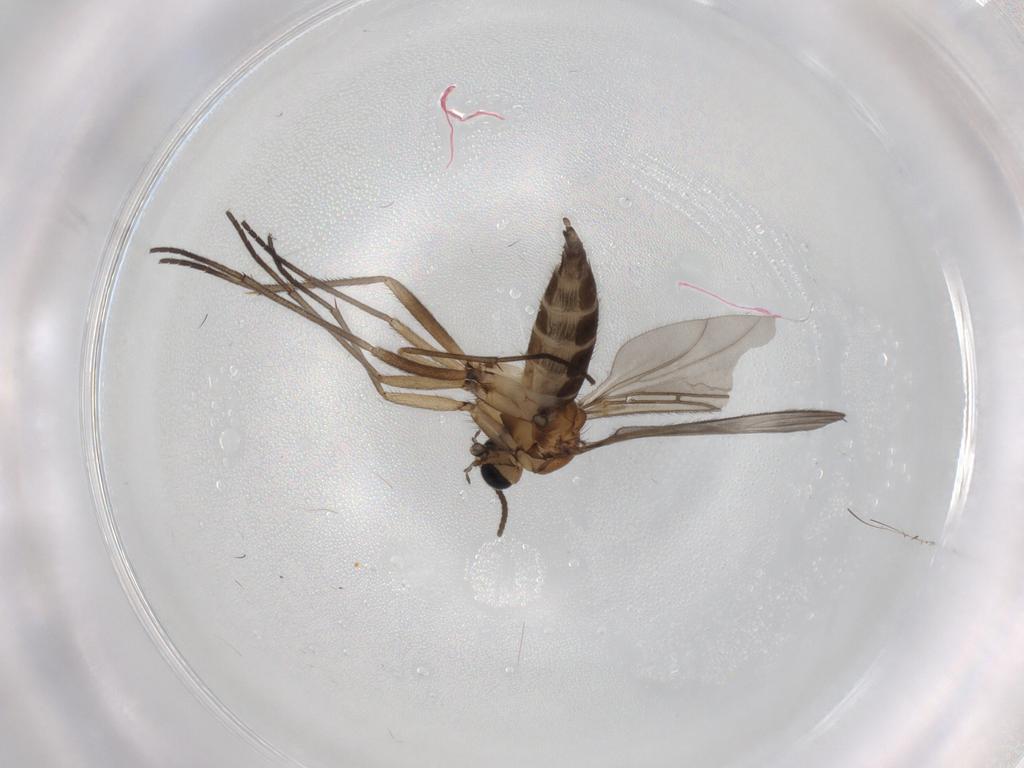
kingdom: Animalia
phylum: Arthropoda
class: Insecta
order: Diptera
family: Sciaridae
